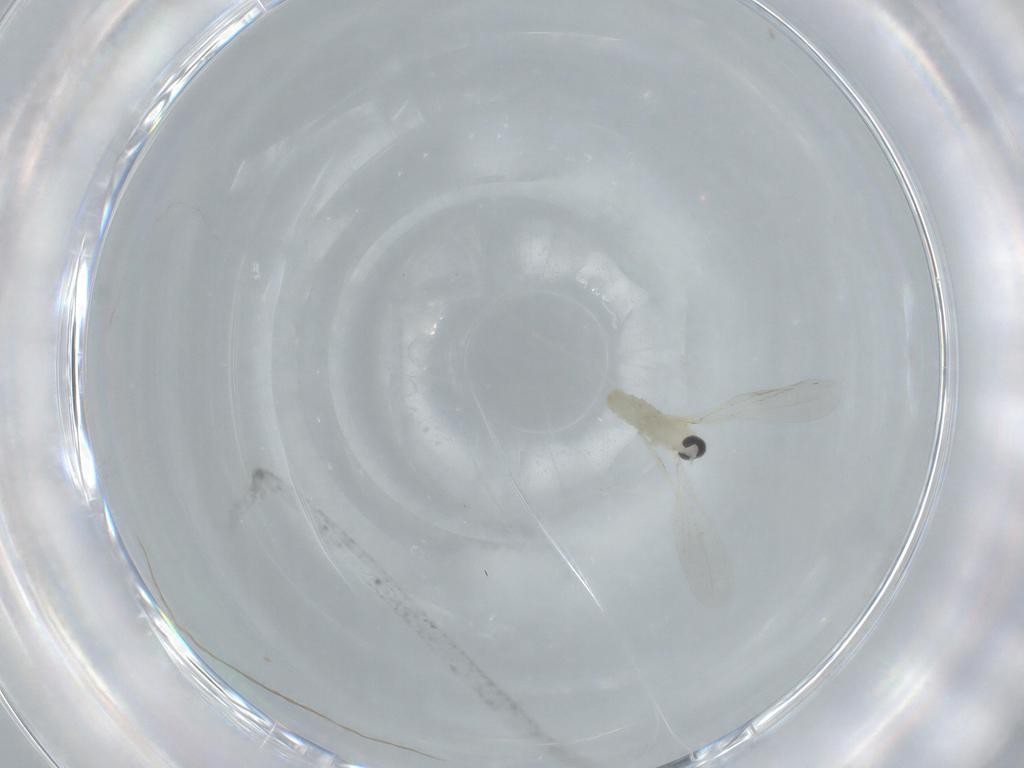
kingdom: Animalia
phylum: Arthropoda
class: Insecta
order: Diptera
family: Cecidomyiidae
